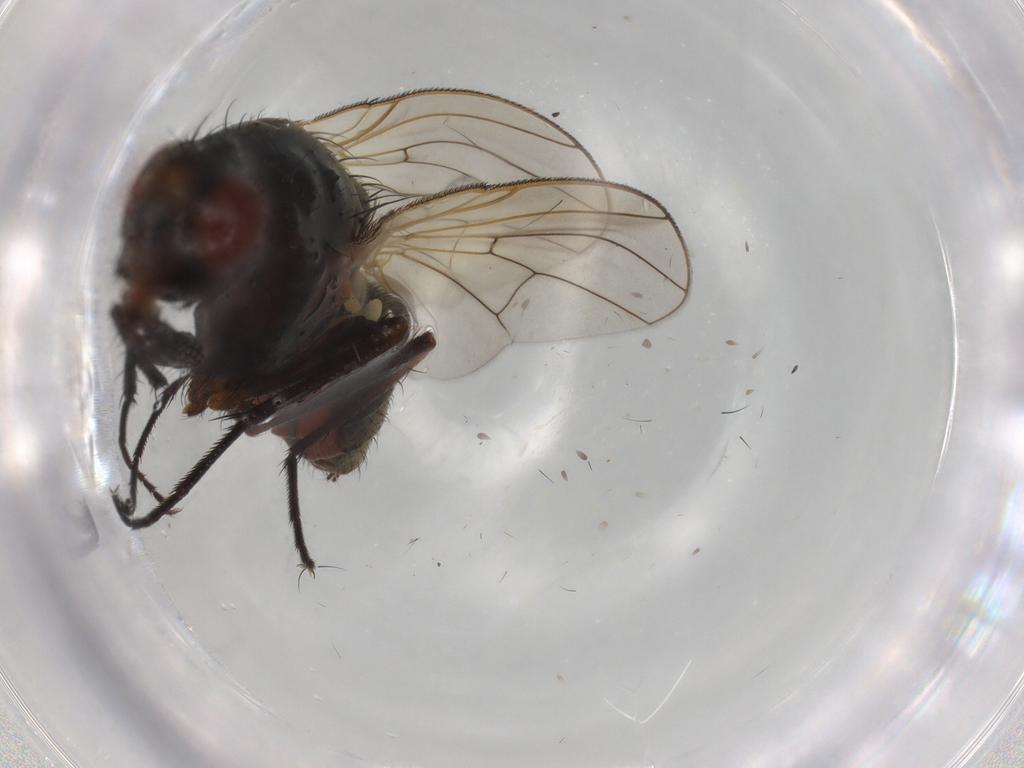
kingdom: Animalia
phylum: Arthropoda
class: Insecta
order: Diptera
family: Anthomyiidae
